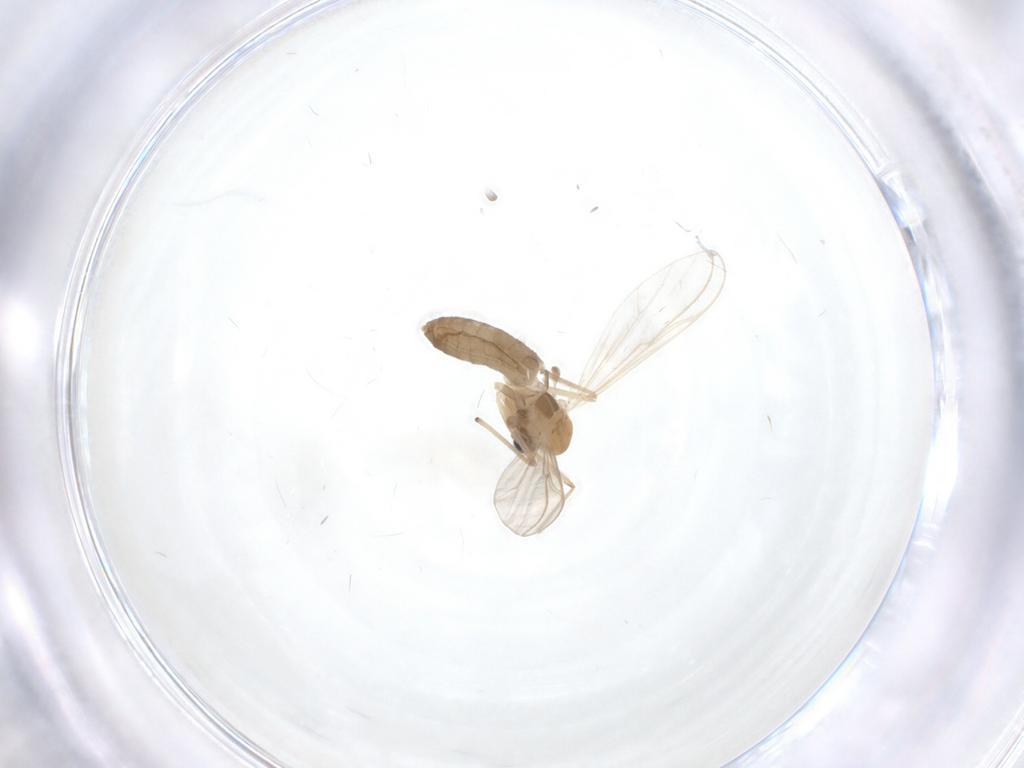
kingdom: Animalia
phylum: Arthropoda
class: Insecta
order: Diptera
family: Chironomidae
